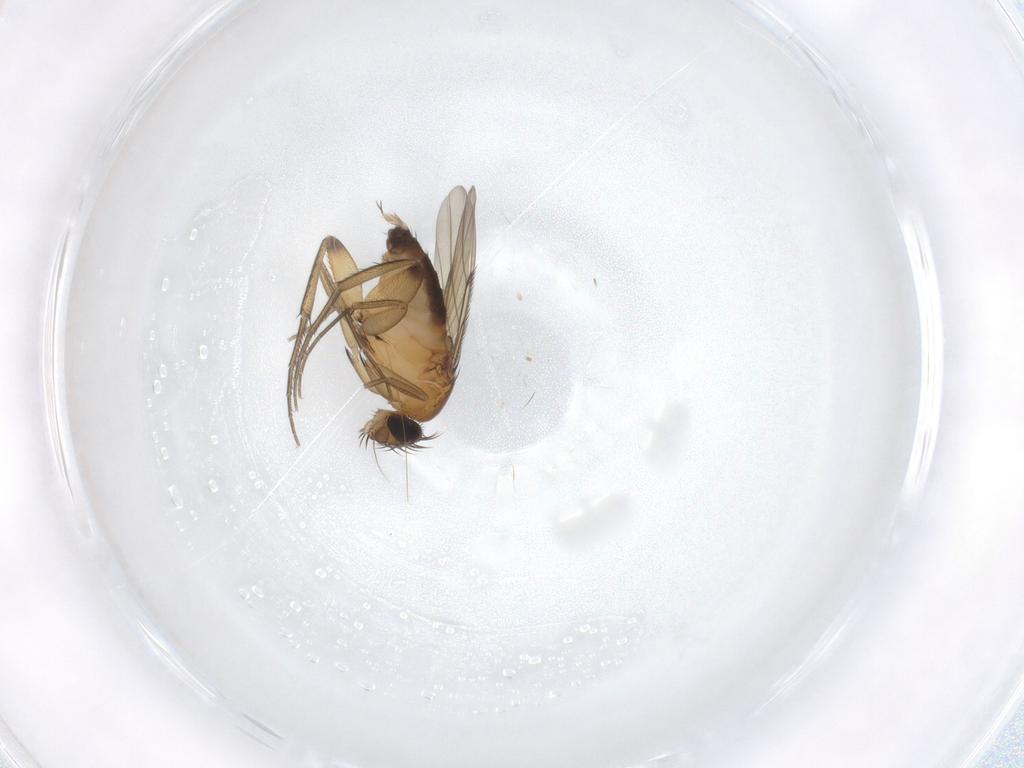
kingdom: Animalia
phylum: Arthropoda
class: Insecta
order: Diptera
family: Phoridae
